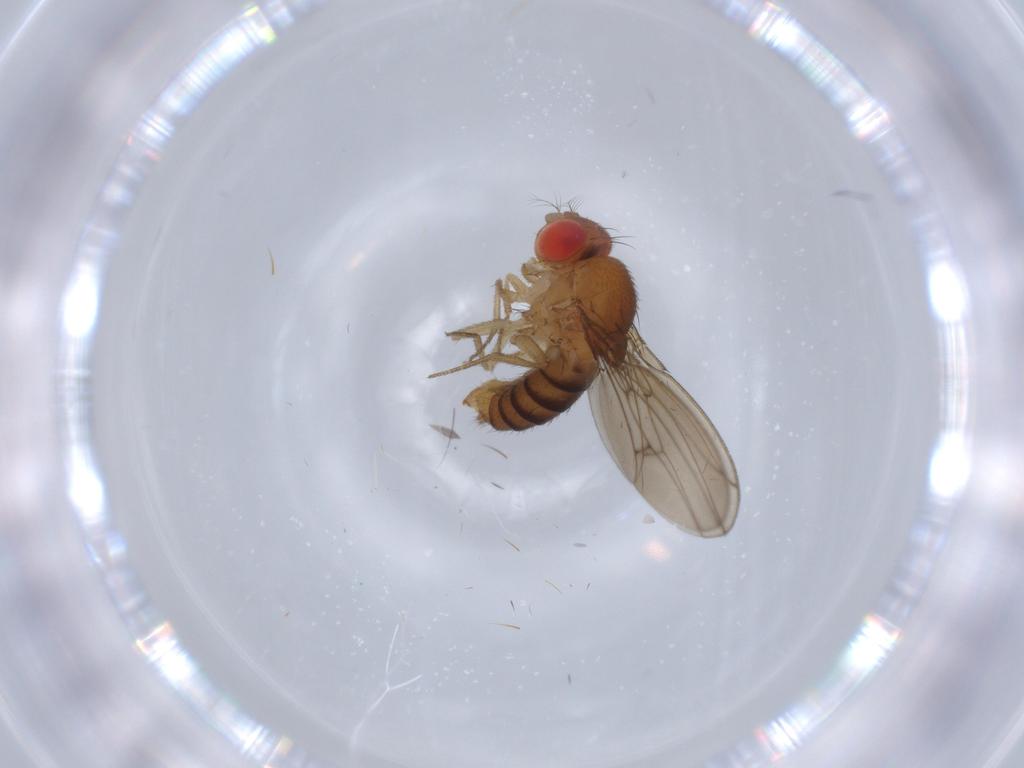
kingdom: Animalia
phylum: Arthropoda
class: Insecta
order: Diptera
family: Drosophilidae
